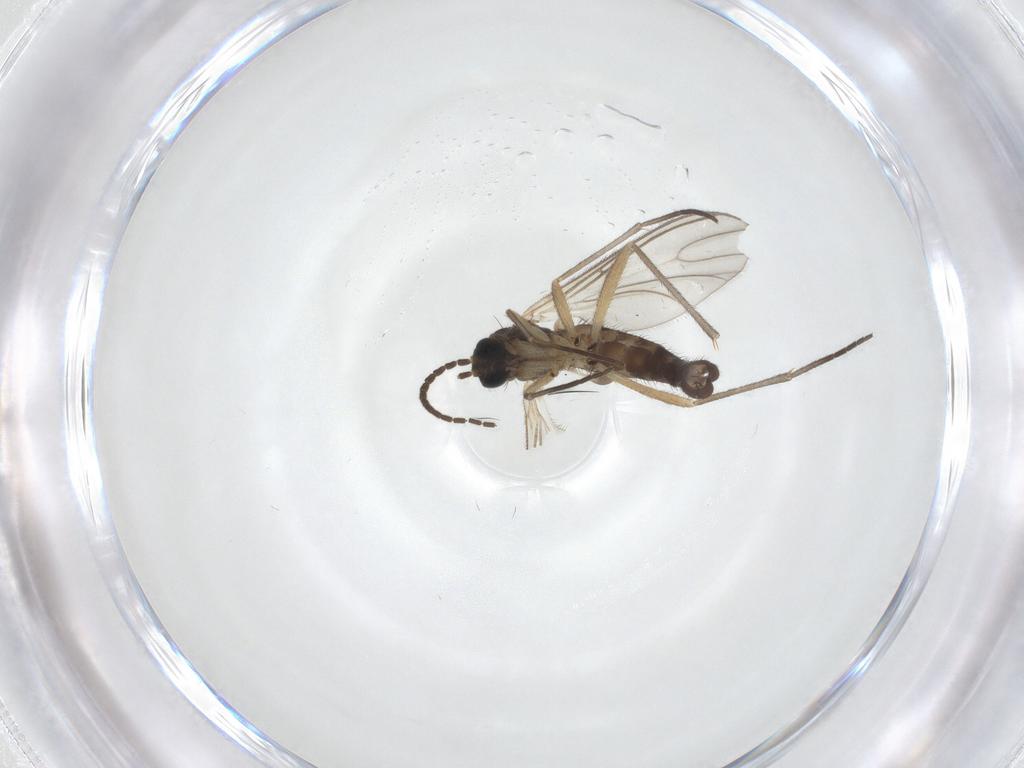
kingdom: Animalia
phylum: Arthropoda
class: Insecta
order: Diptera
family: Sciaridae
